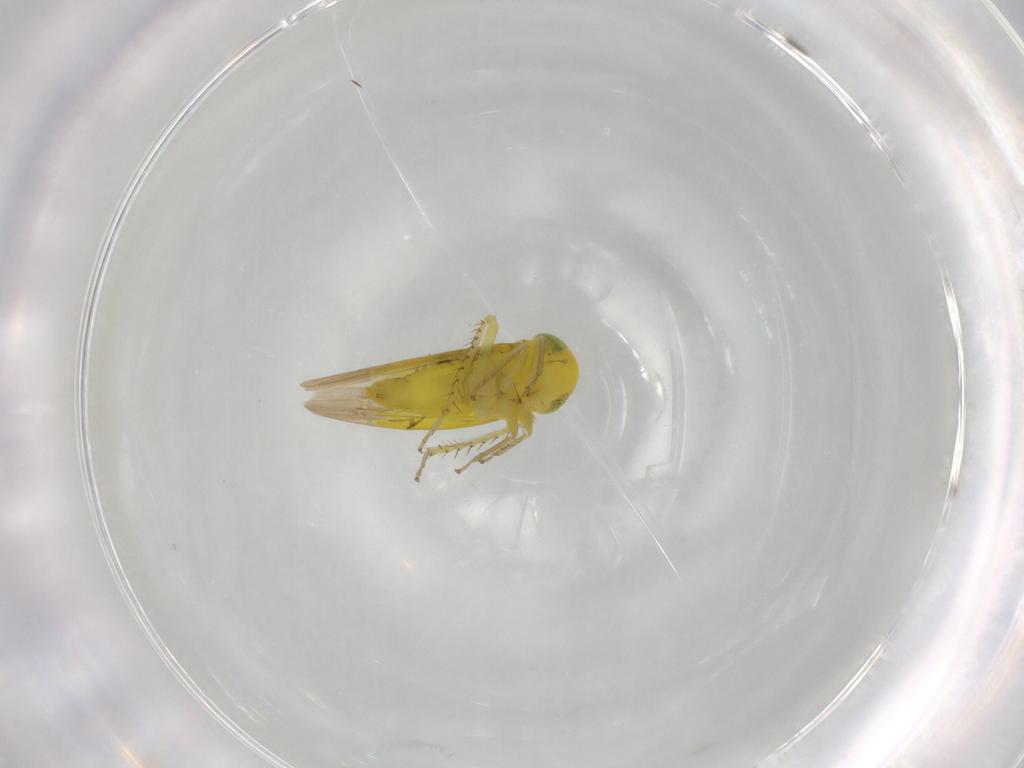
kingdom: Animalia
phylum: Arthropoda
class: Insecta
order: Hemiptera
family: Cicadellidae
